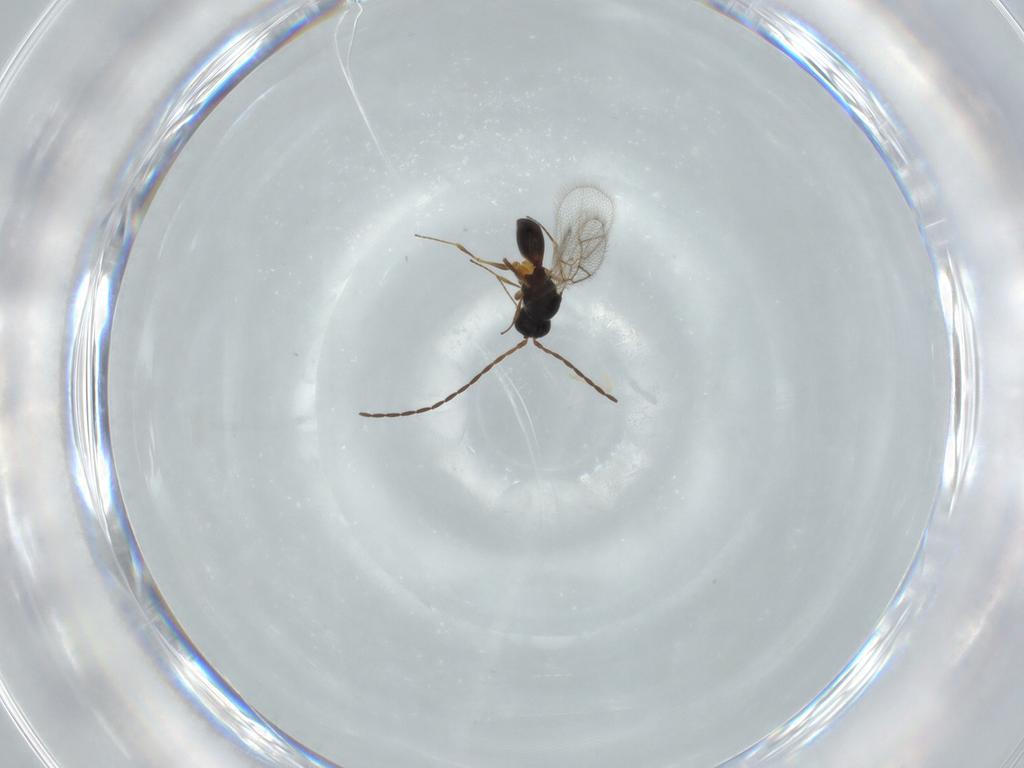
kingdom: Animalia
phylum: Arthropoda
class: Insecta
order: Hymenoptera
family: Figitidae
